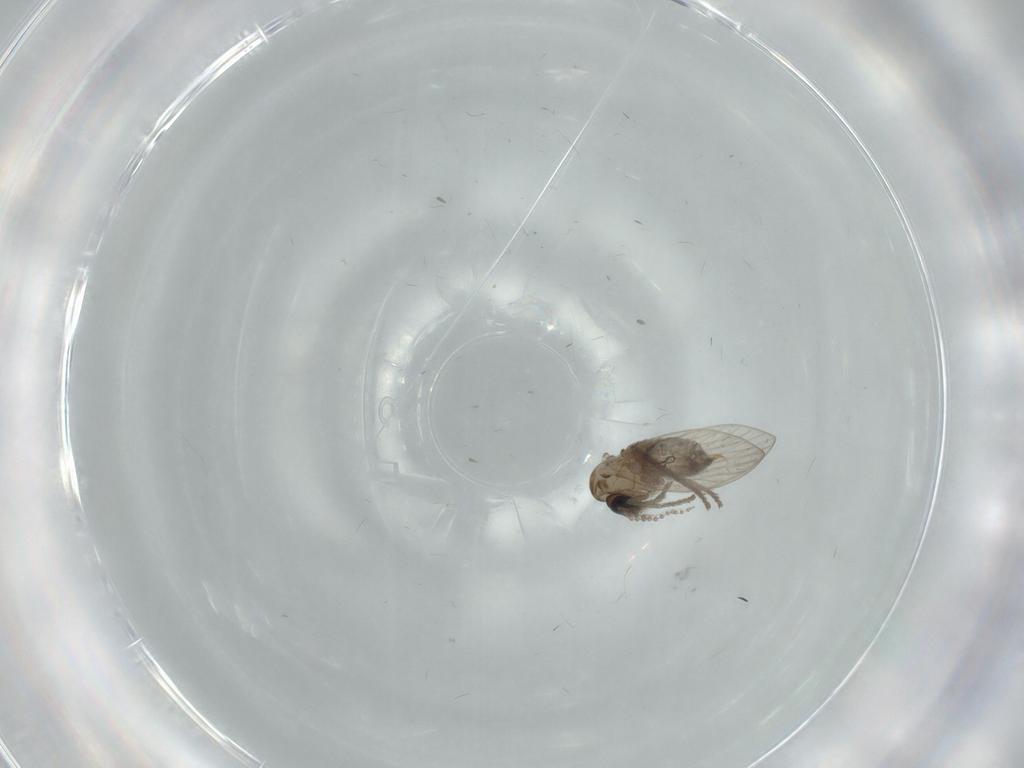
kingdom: Animalia
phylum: Arthropoda
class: Insecta
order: Diptera
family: Psychodidae
